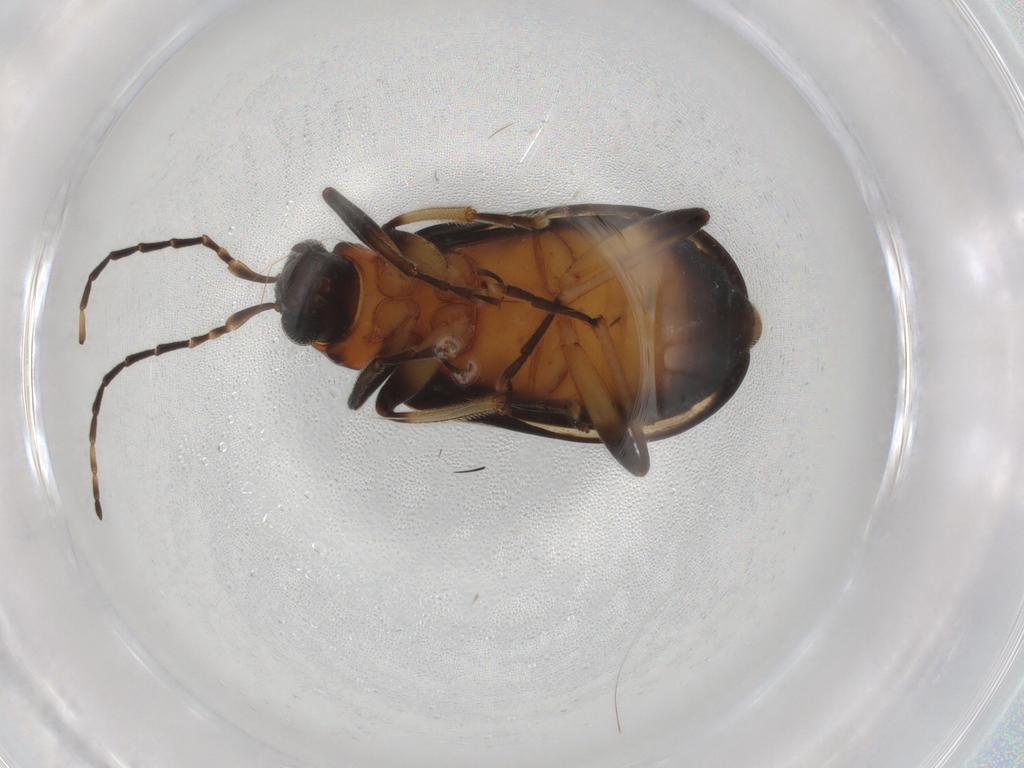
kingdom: Animalia
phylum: Arthropoda
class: Insecta
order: Coleoptera
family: Chrysomelidae
